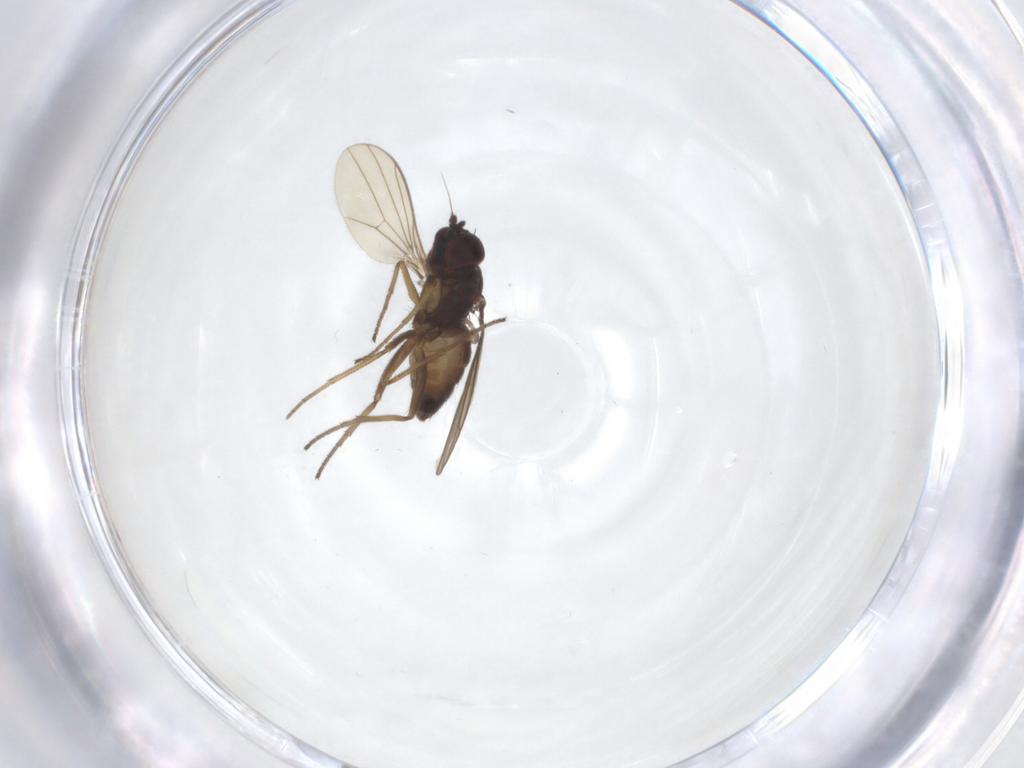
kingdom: Animalia
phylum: Arthropoda
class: Insecta
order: Diptera
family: Dolichopodidae
